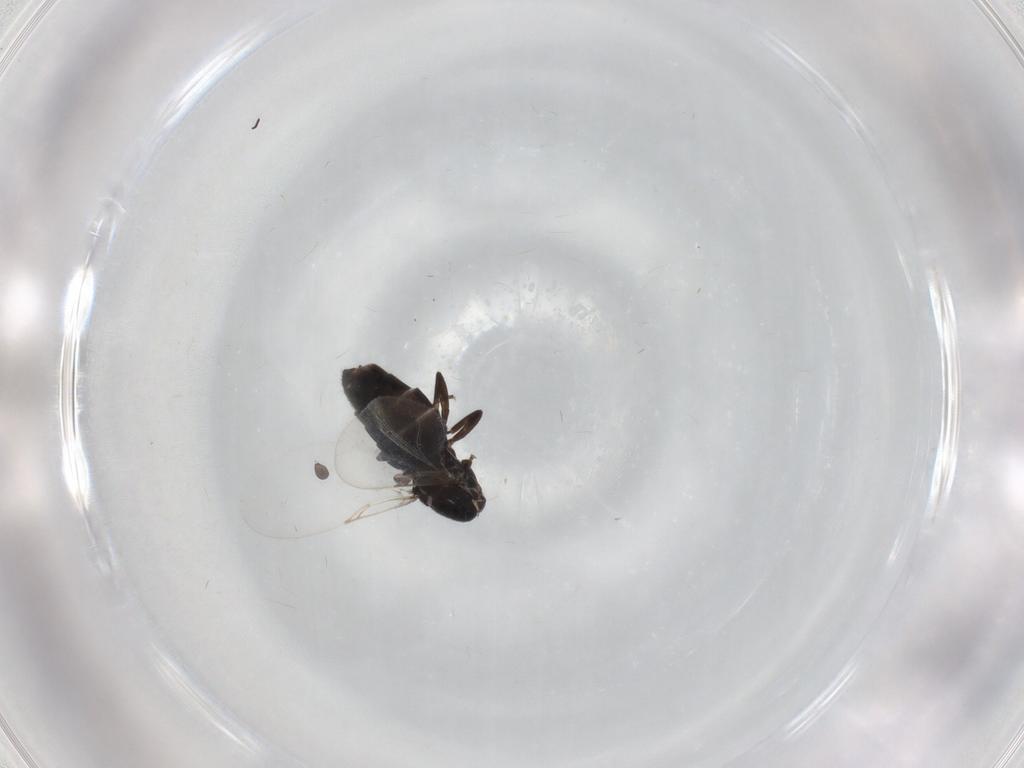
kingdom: Animalia
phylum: Arthropoda
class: Insecta
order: Diptera
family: Scatopsidae
